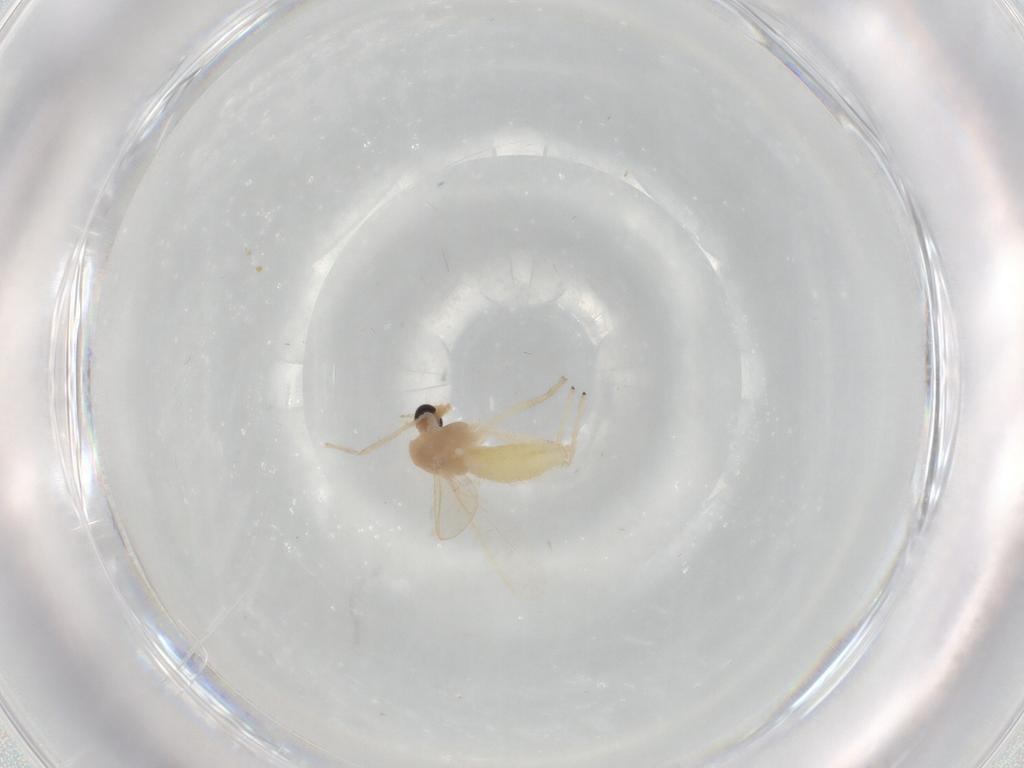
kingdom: Animalia
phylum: Arthropoda
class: Insecta
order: Diptera
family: Chironomidae
